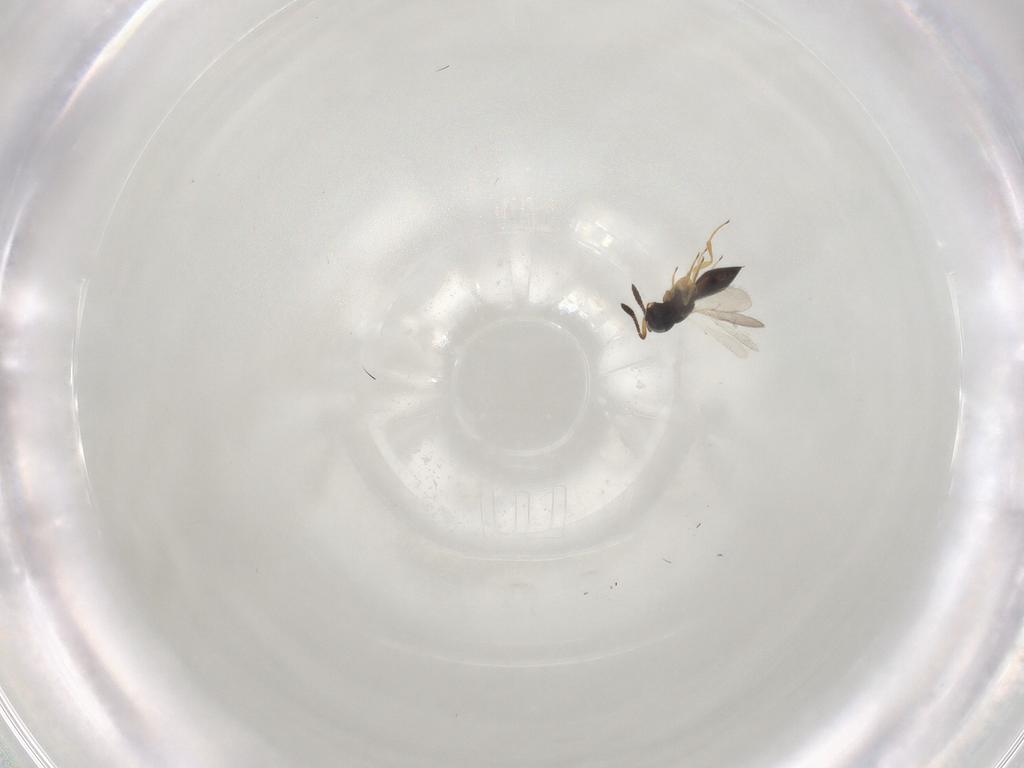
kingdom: Animalia
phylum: Arthropoda
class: Insecta
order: Hymenoptera
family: Scelionidae
